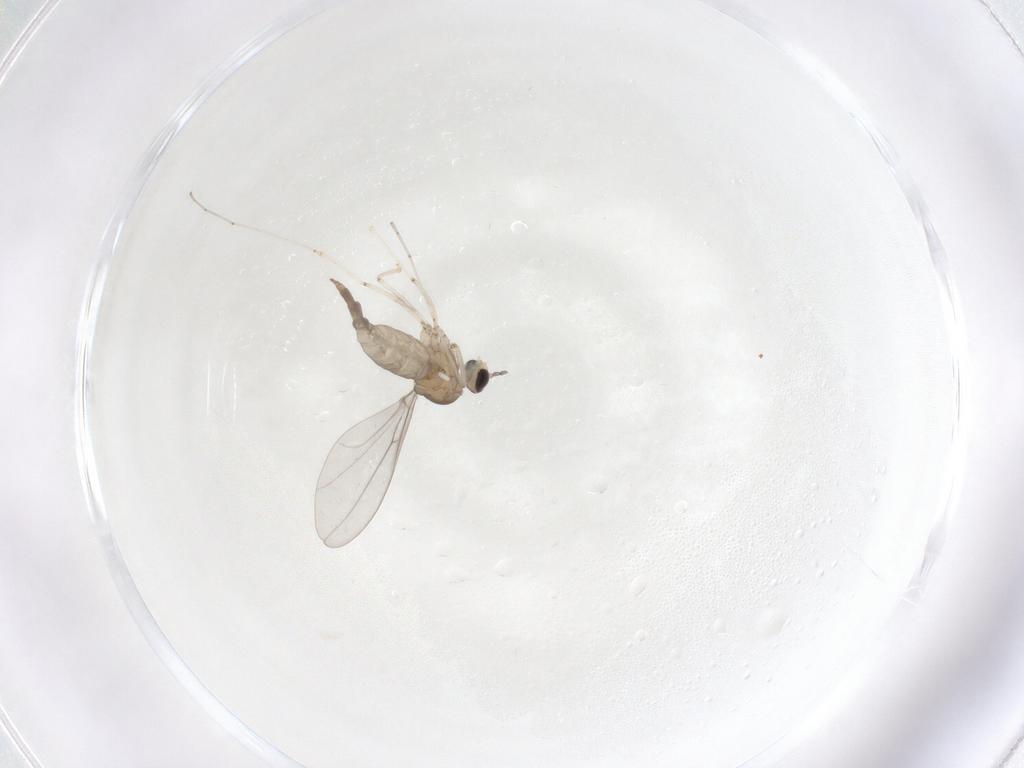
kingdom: Animalia
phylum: Arthropoda
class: Insecta
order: Diptera
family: Cecidomyiidae
